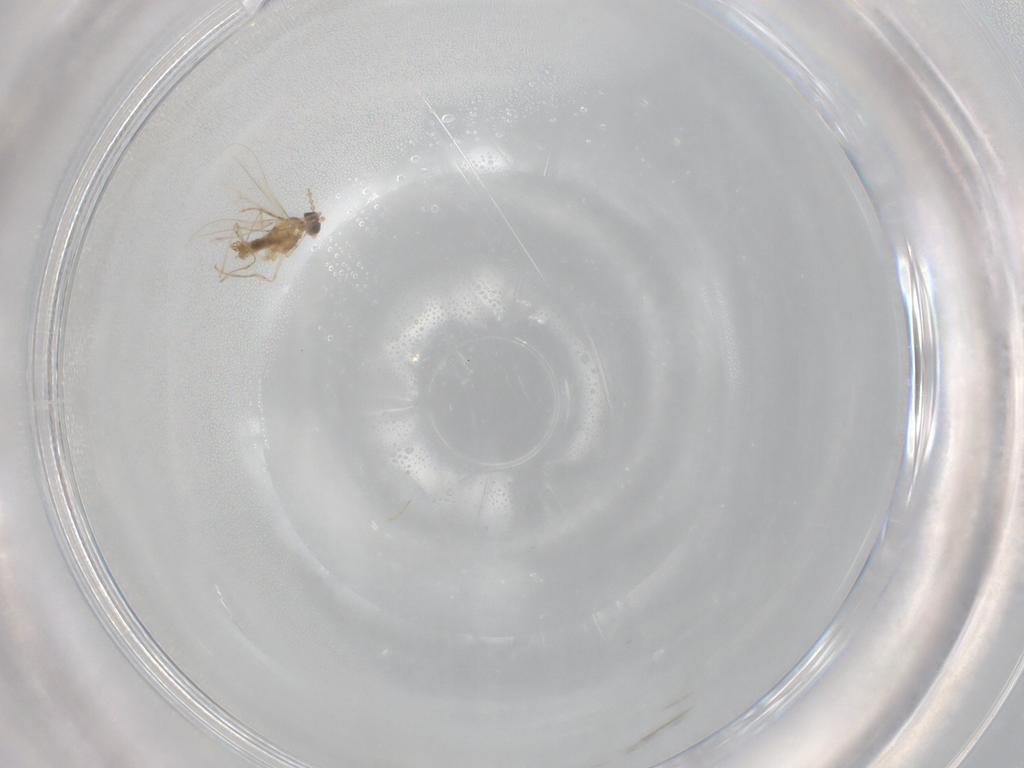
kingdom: Animalia
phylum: Arthropoda
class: Insecta
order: Diptera
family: Cecidomyiidae
